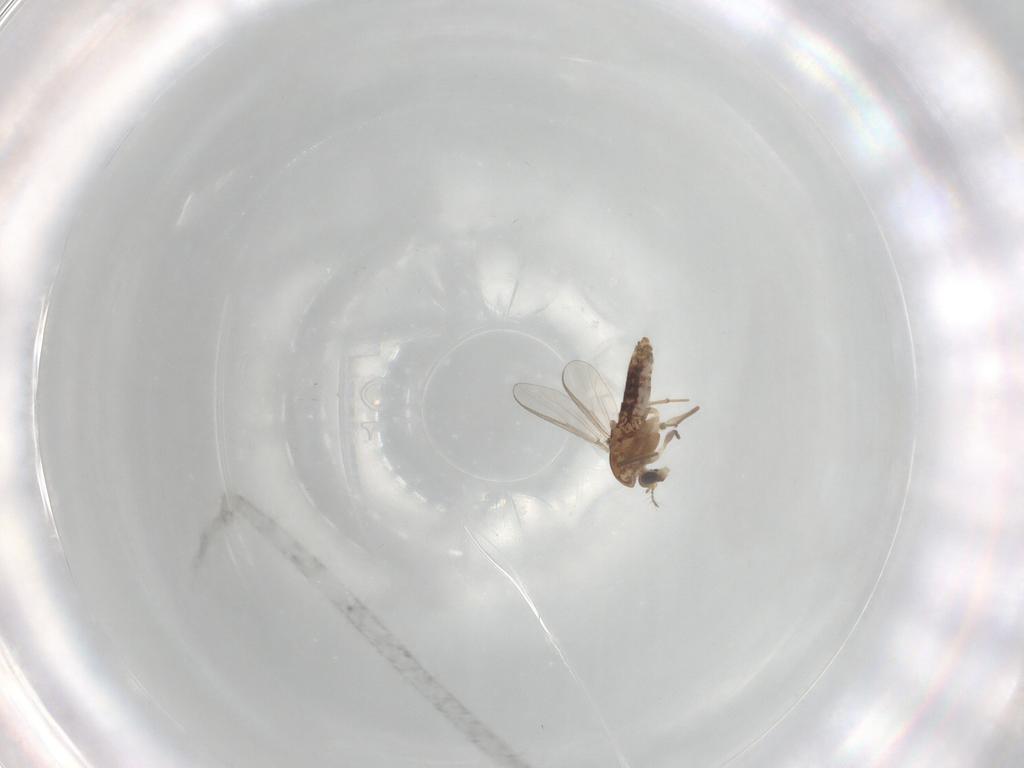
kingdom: Animalia
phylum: Arthropoda
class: Insecta
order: Diptera
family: Chironomidae
